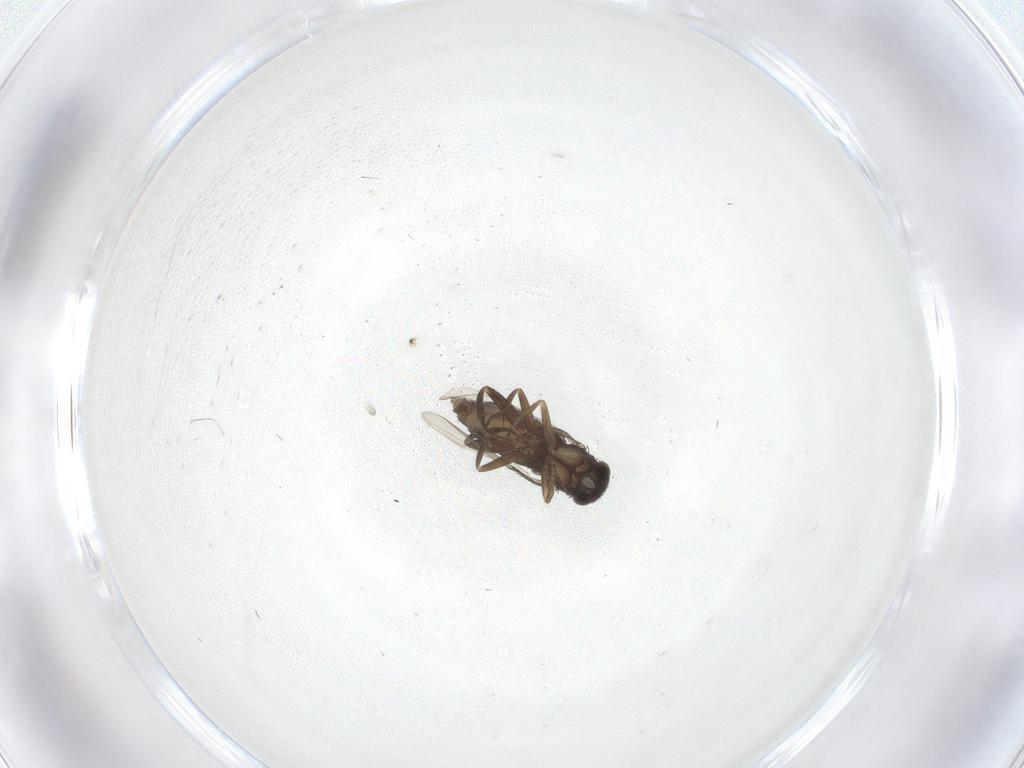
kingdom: Animalia
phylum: Arthropoda
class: Insecta
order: Diptera
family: Phoridae
